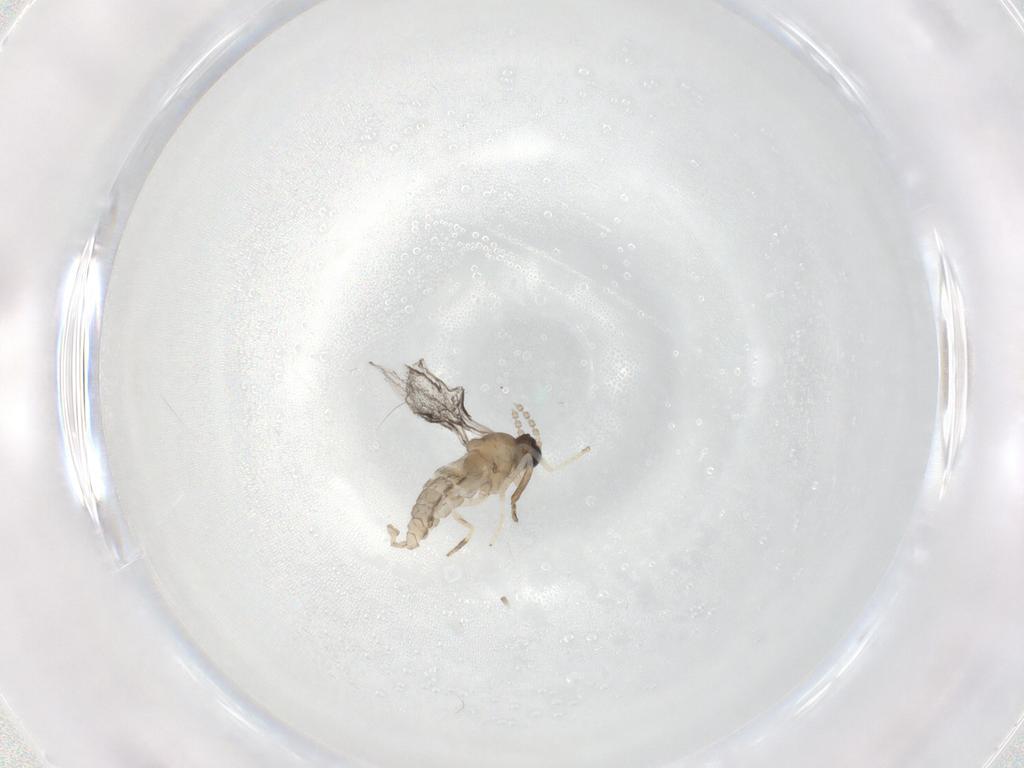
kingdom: Animalia
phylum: Arthropoda
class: Insecta
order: Diptera
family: Cecidomyiidae
